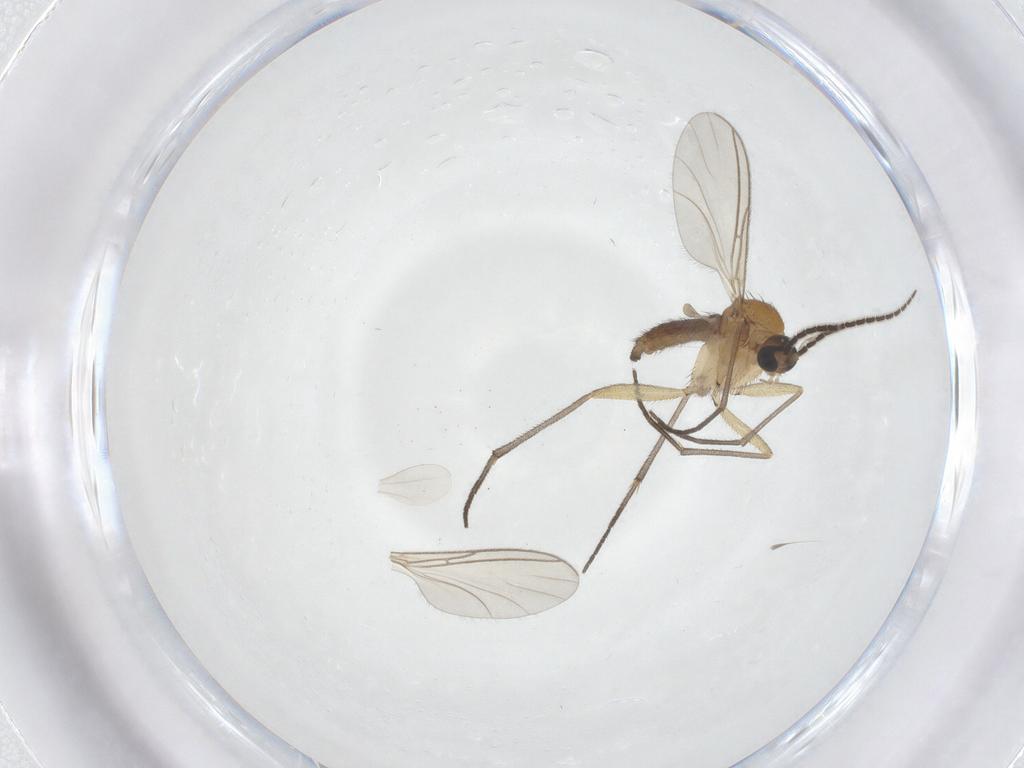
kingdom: Animalia
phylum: Arthropoda
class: Insecta
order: Diptera
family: Sciaridae
